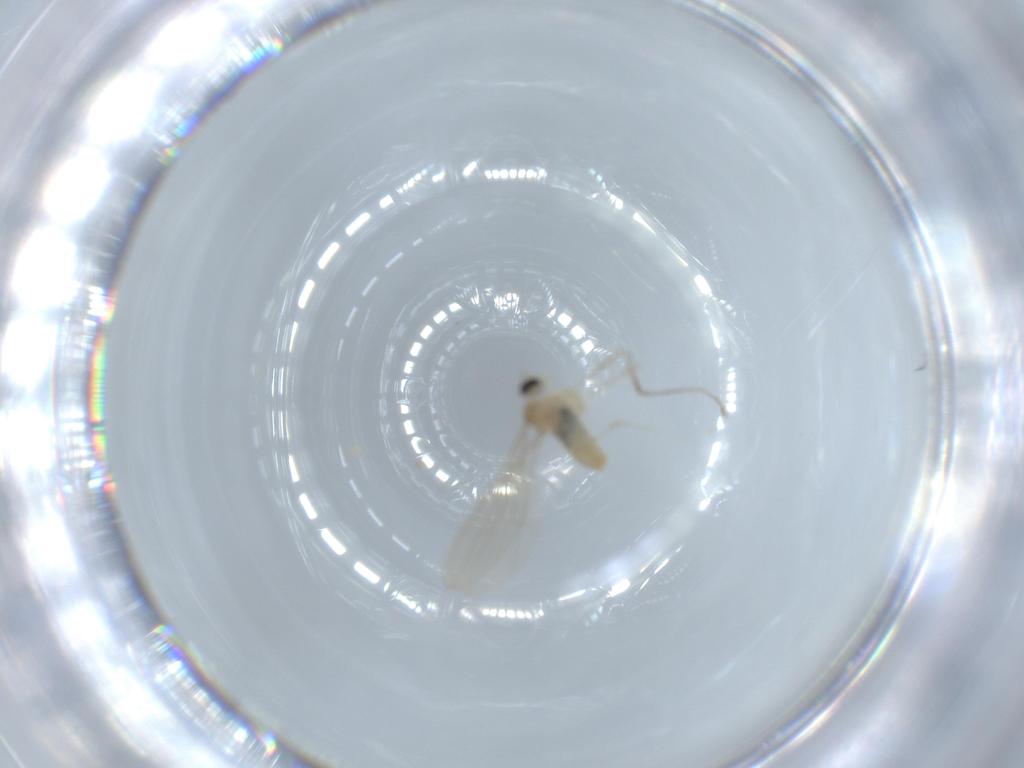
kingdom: Animalia
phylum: Arthropoda
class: Insecta
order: Diptera
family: Cecidomyiidae
